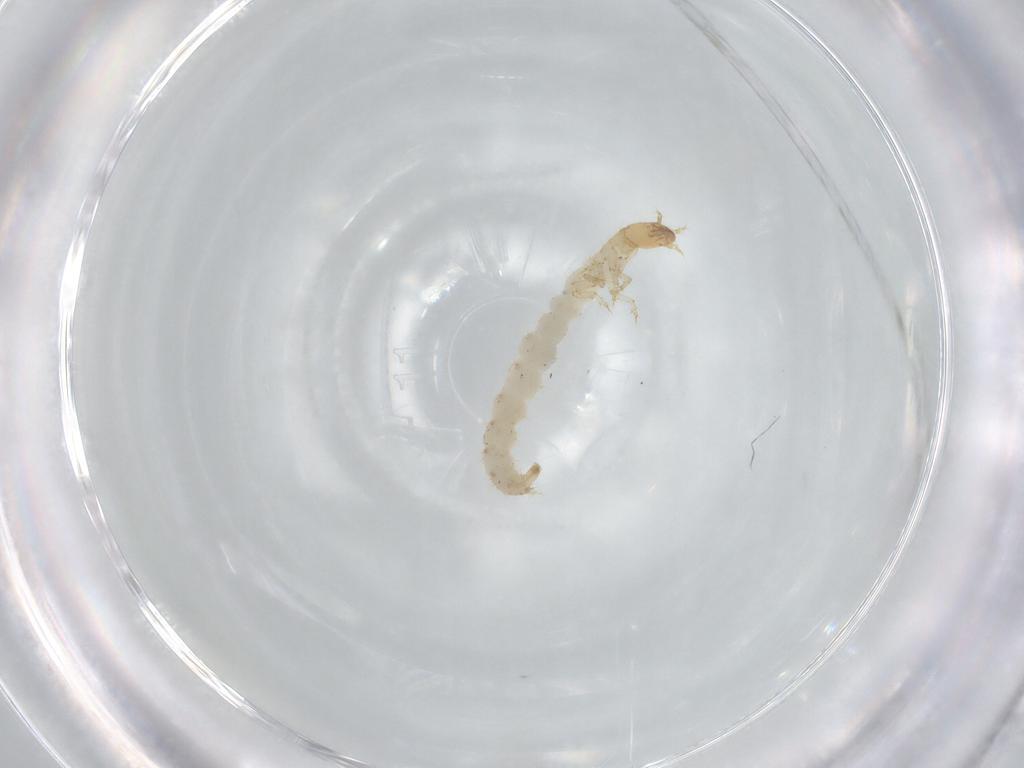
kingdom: Animalia
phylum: Arthropoda
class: Insecta
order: Coleoptera
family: Staphylinidae
